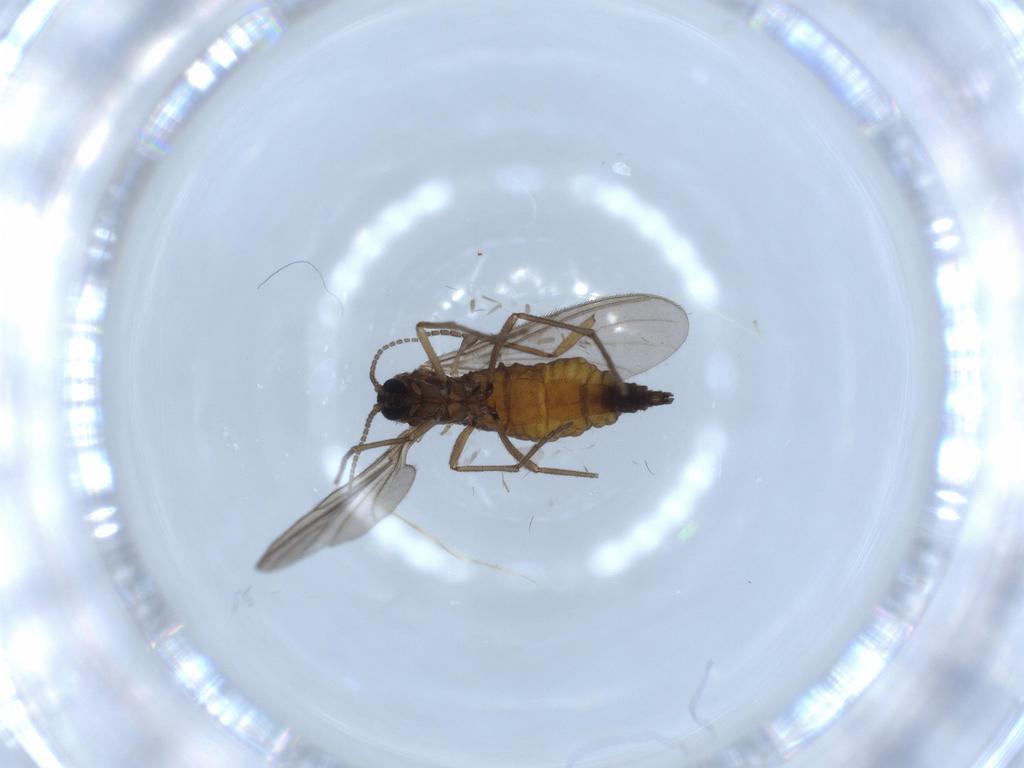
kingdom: Animalia
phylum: Arthropoda
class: Insecta
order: Diptera
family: Sciaridae
